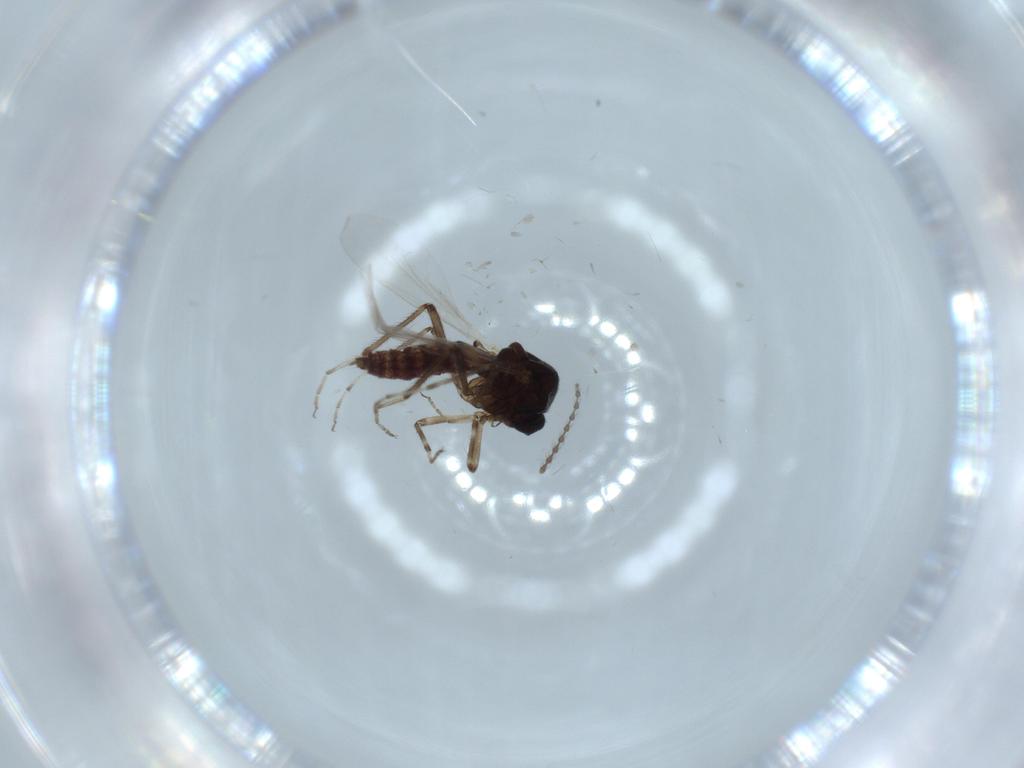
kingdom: Animalia
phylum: Arthropoda
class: Insecta
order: Diptera
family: Ceratopogonidae
